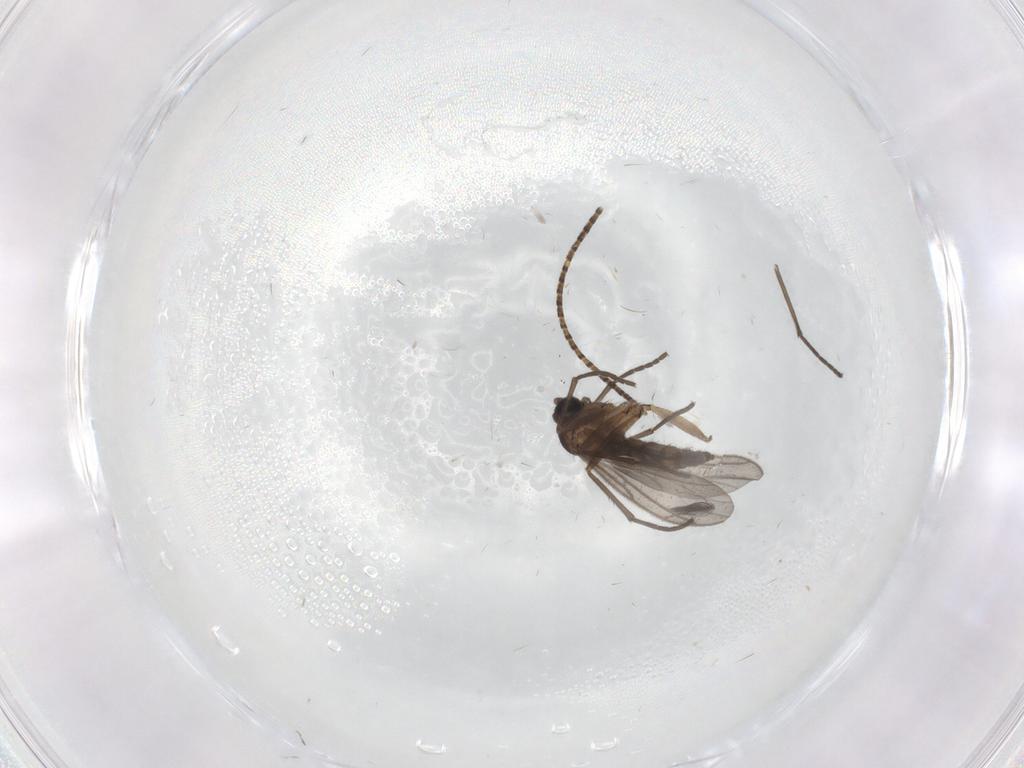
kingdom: Animalia
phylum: Arthropoda
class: Insecta
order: Diptera
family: Sciaridae
